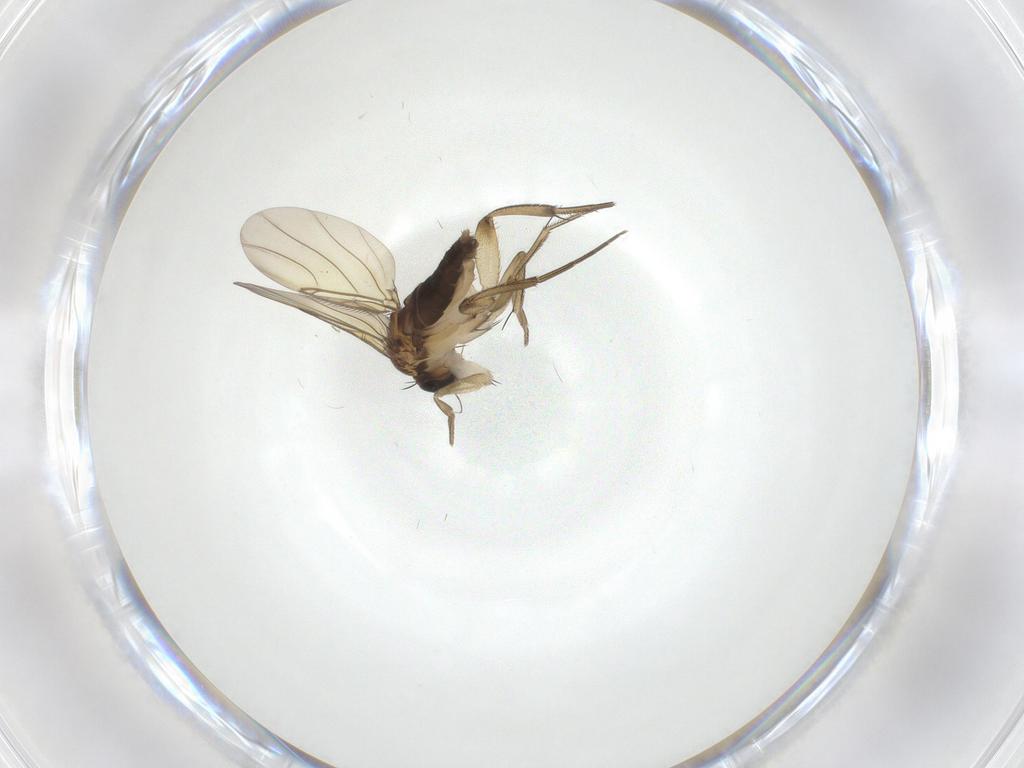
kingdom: Animalia
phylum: Arthropoda
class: Insecta
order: Diptera
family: Phoridae
